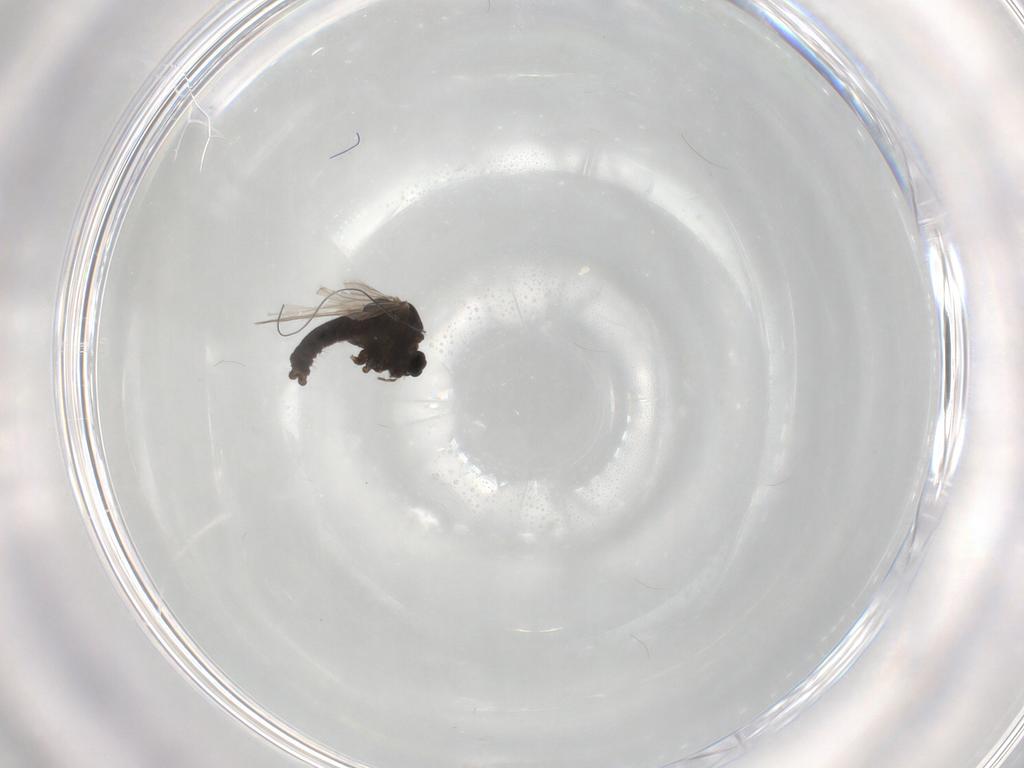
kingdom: Animalia
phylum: Arthropoda
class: Insecta
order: Diptera
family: Chironomidae
